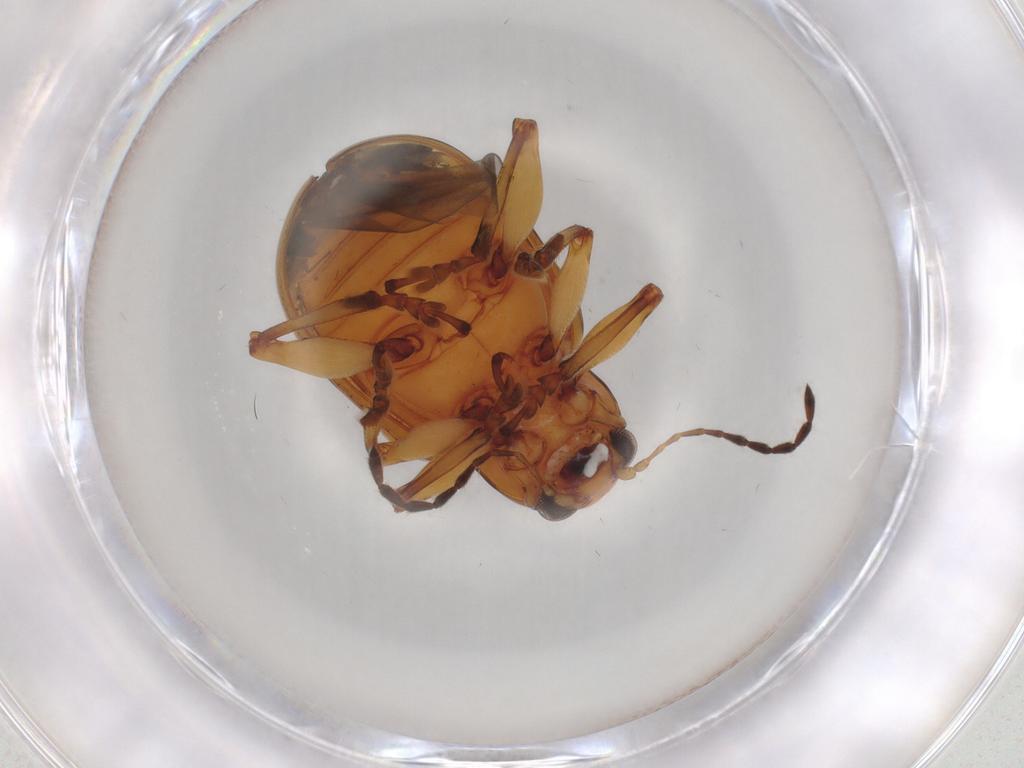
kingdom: Animalia
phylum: Arthropoda
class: Insecta
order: Coleoptera
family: Chrysomelidae
